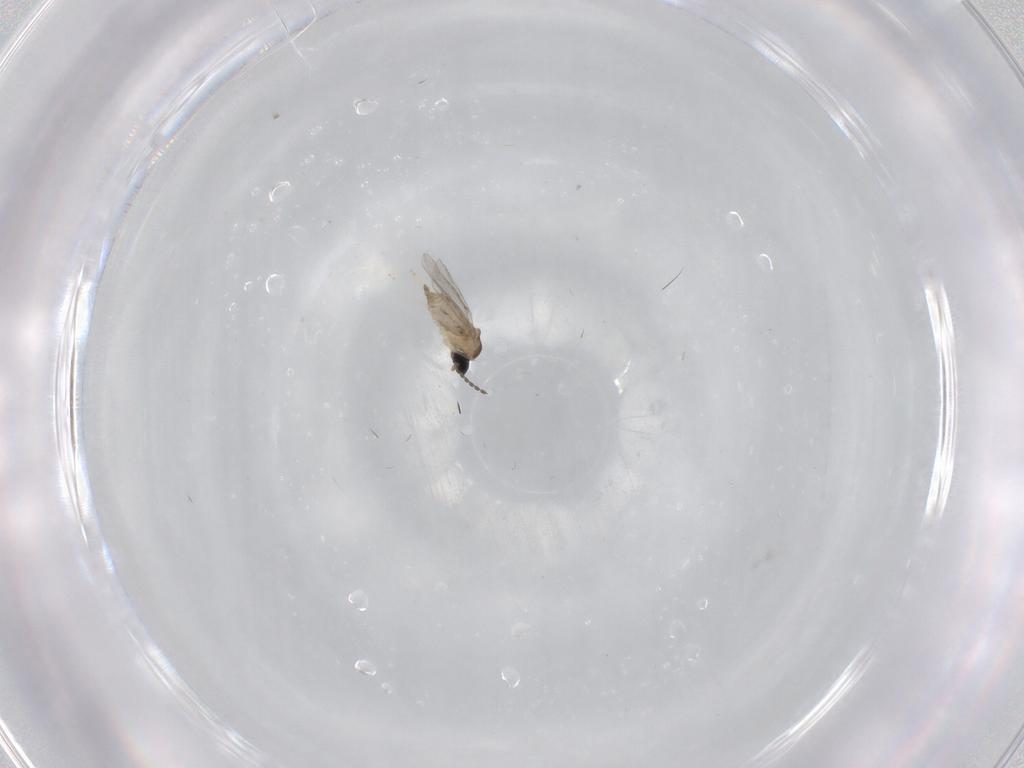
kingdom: Animalia
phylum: Arthropoda
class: Insecta
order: Diptera
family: Cecidomyiidae
